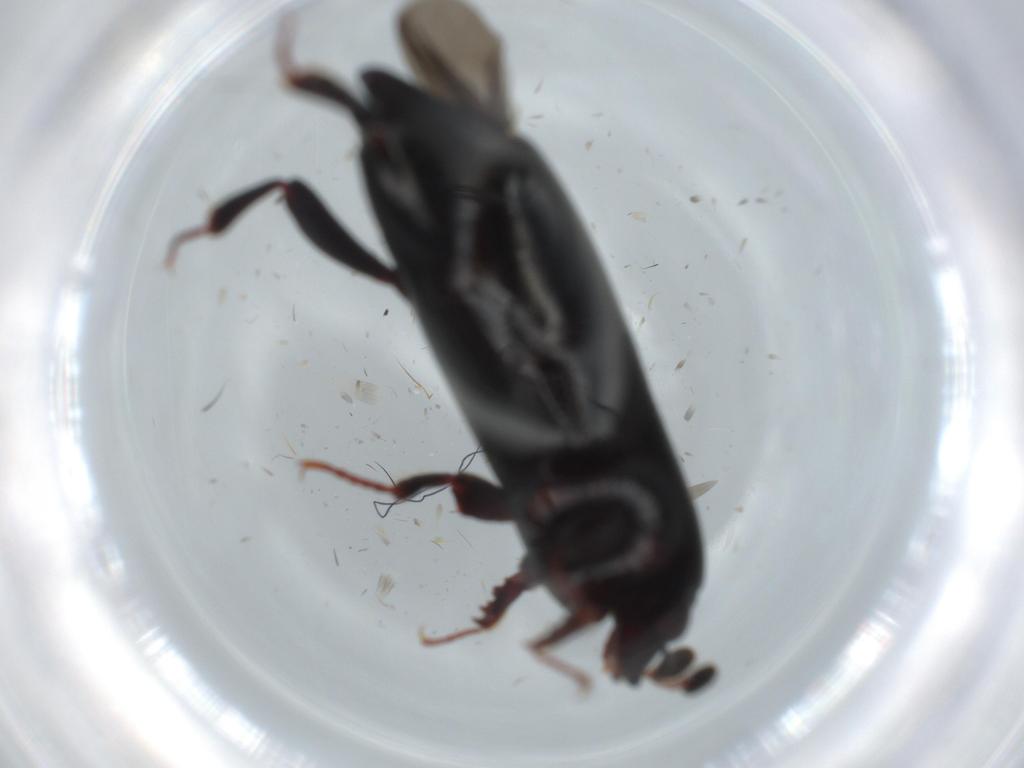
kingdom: Animalia
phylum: Arthropoda
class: Insecta
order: Coleoptera
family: Histeridae
